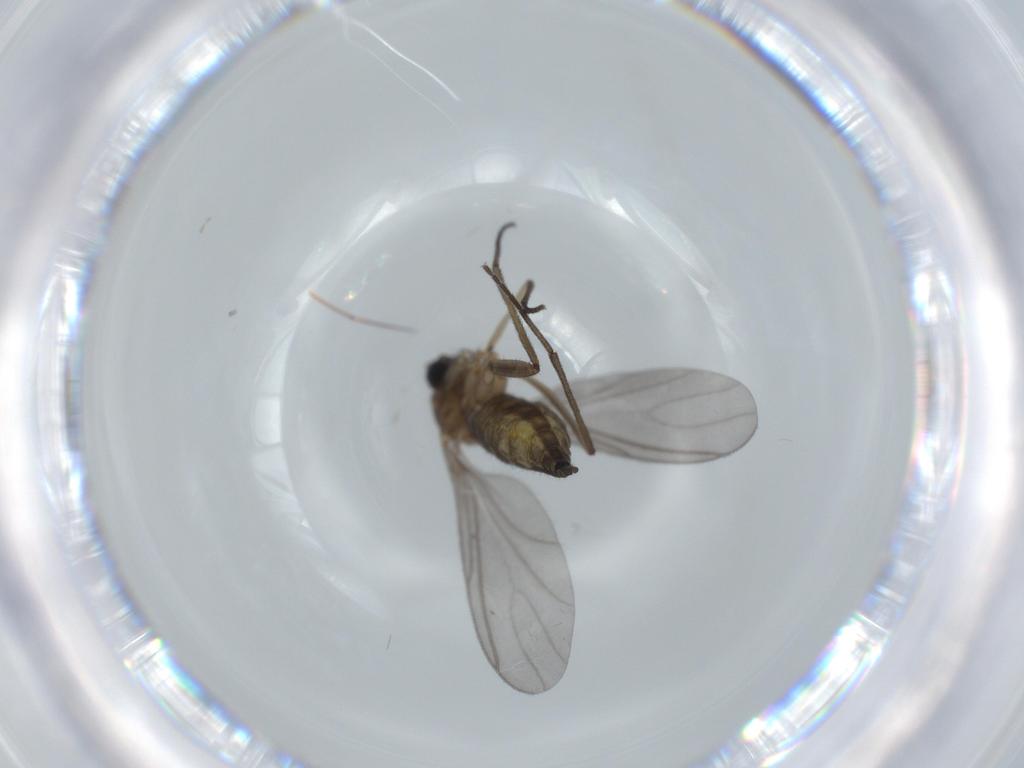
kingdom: Animalia
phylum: Arthropoda
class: Insecta
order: Diptera
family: Sciaridae
